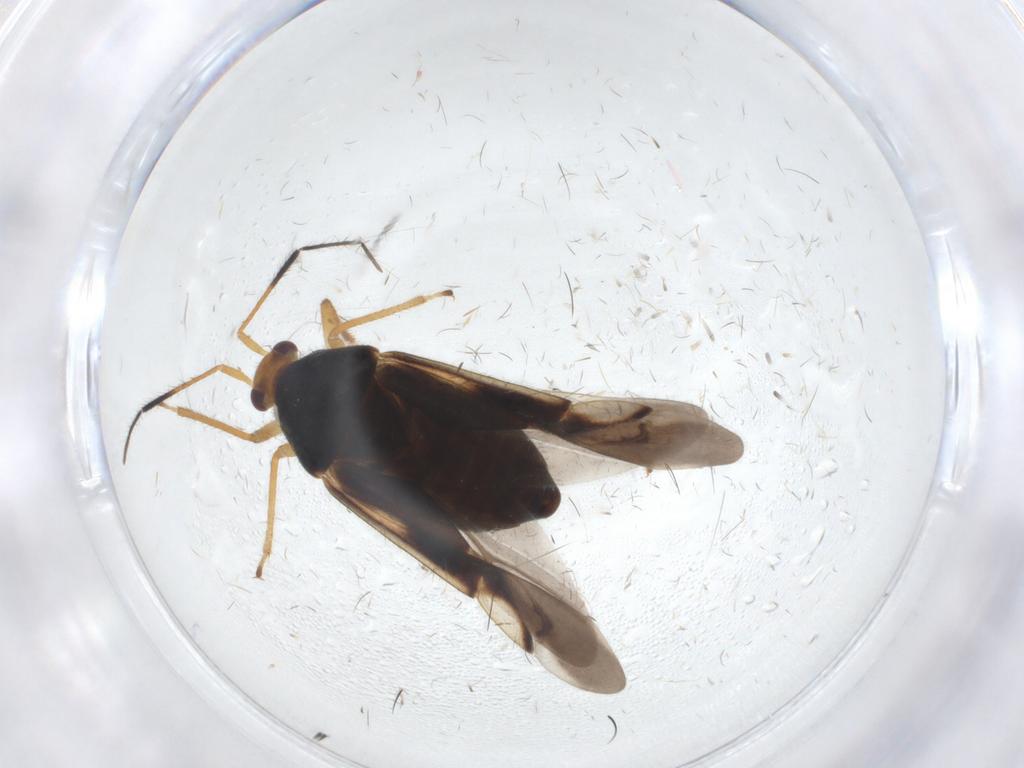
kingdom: Animalia
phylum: Arthropoda
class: Insecta
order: Hemiptera
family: Miridae
